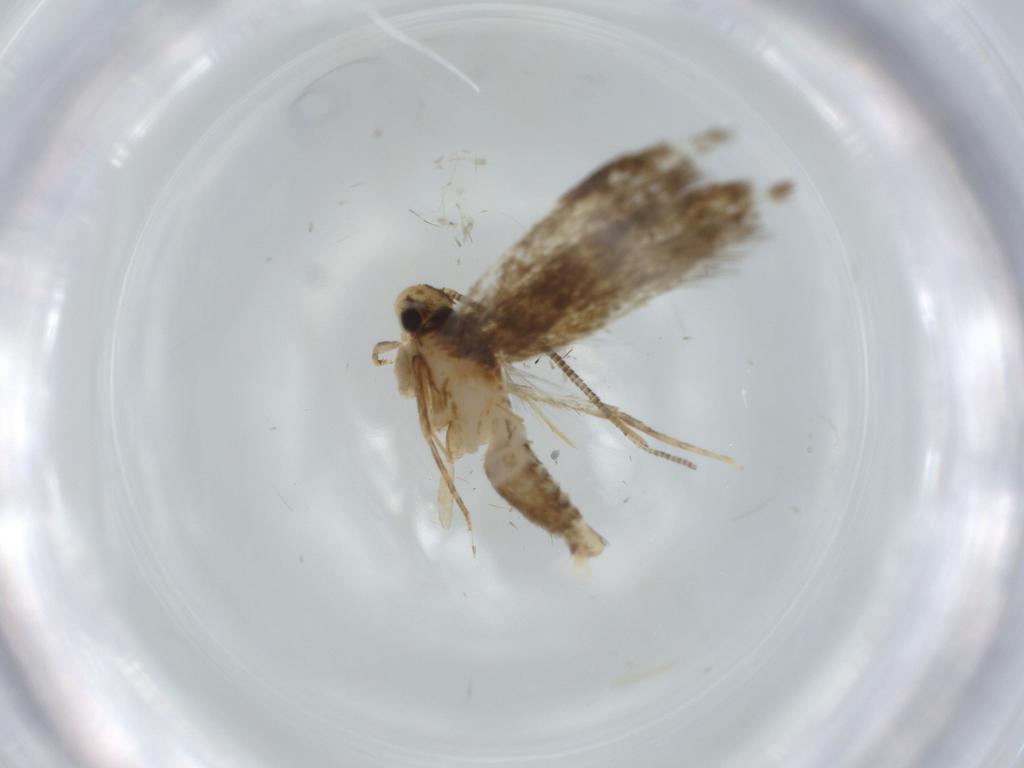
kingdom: Animalia
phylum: Arthropoda
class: Insecta
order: Lepidoptera
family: Tineidae
